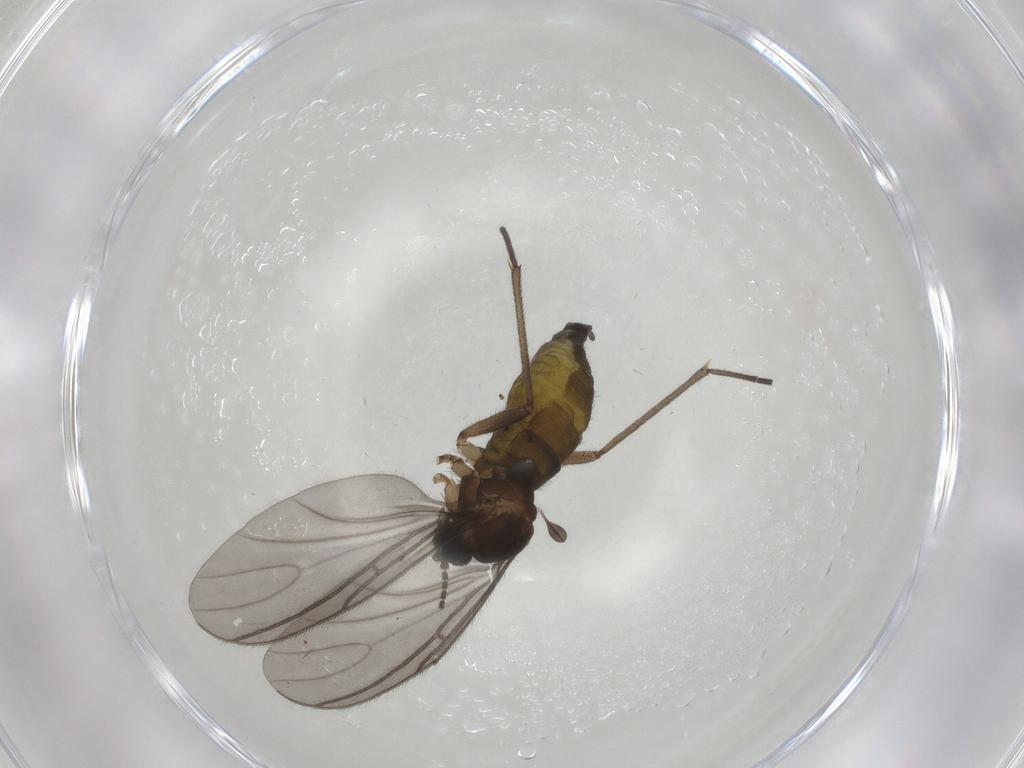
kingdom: Animalia
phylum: Arthropoda
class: Insecta
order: Diptera
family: Sciaridae
